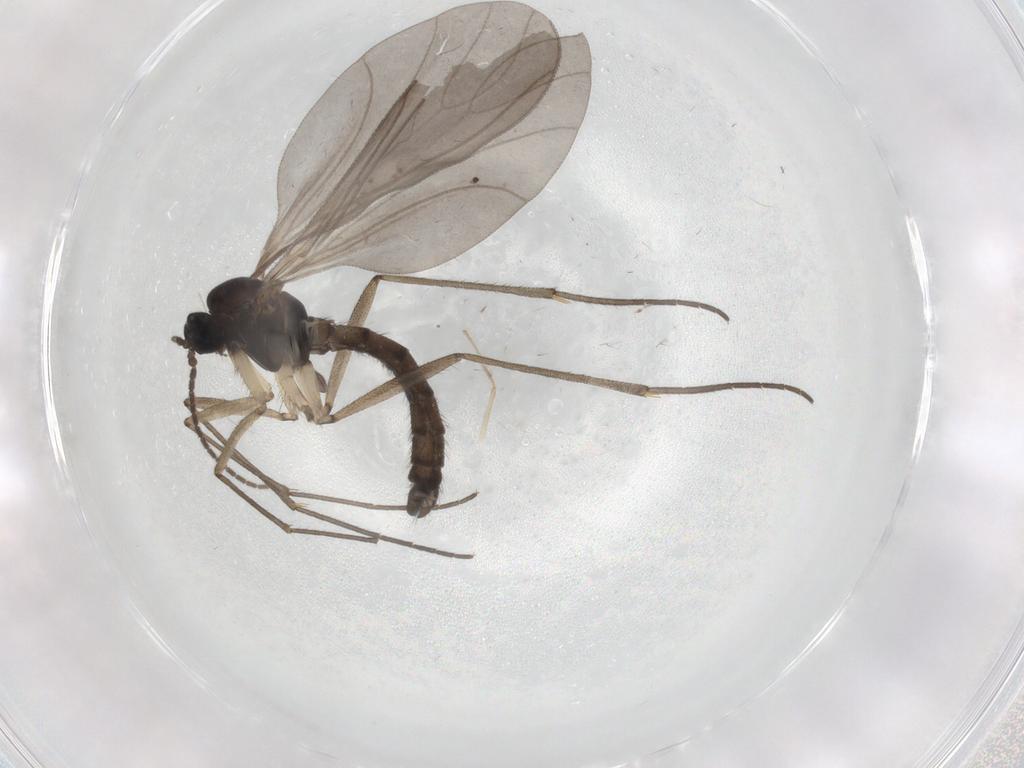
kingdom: Animalia
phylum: Arthropoda
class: Insecta
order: Diptera
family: Sciaridae
